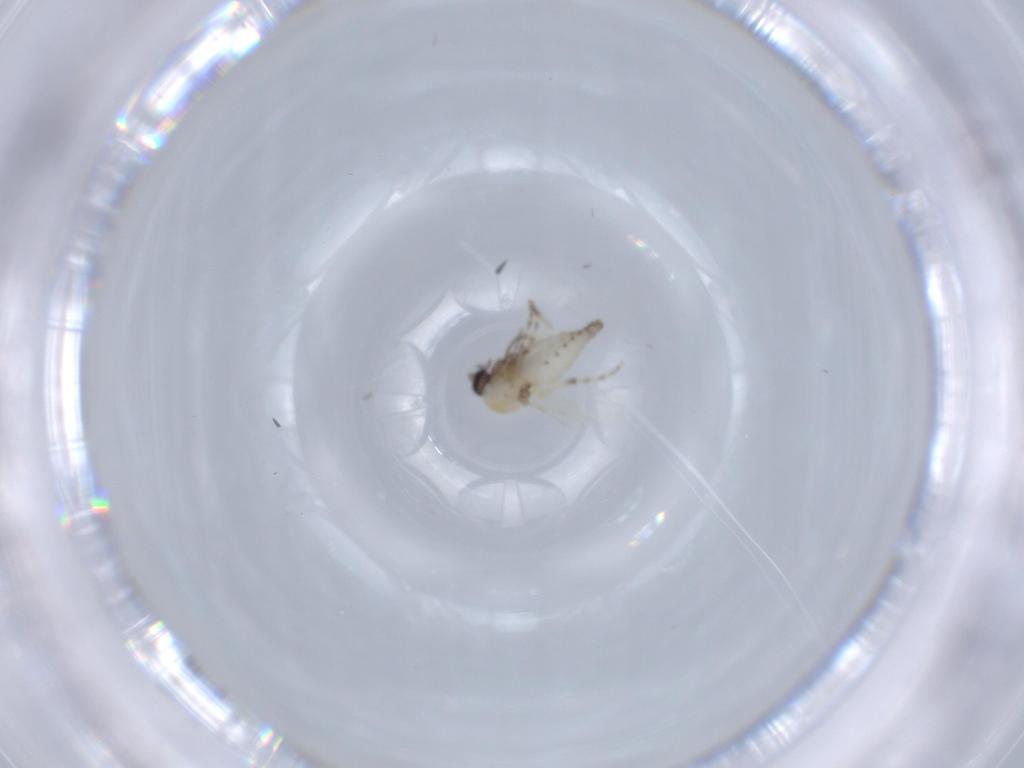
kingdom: Animalia
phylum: Arthropoda
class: Insecta
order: Diptera
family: Ceratopogonidae
